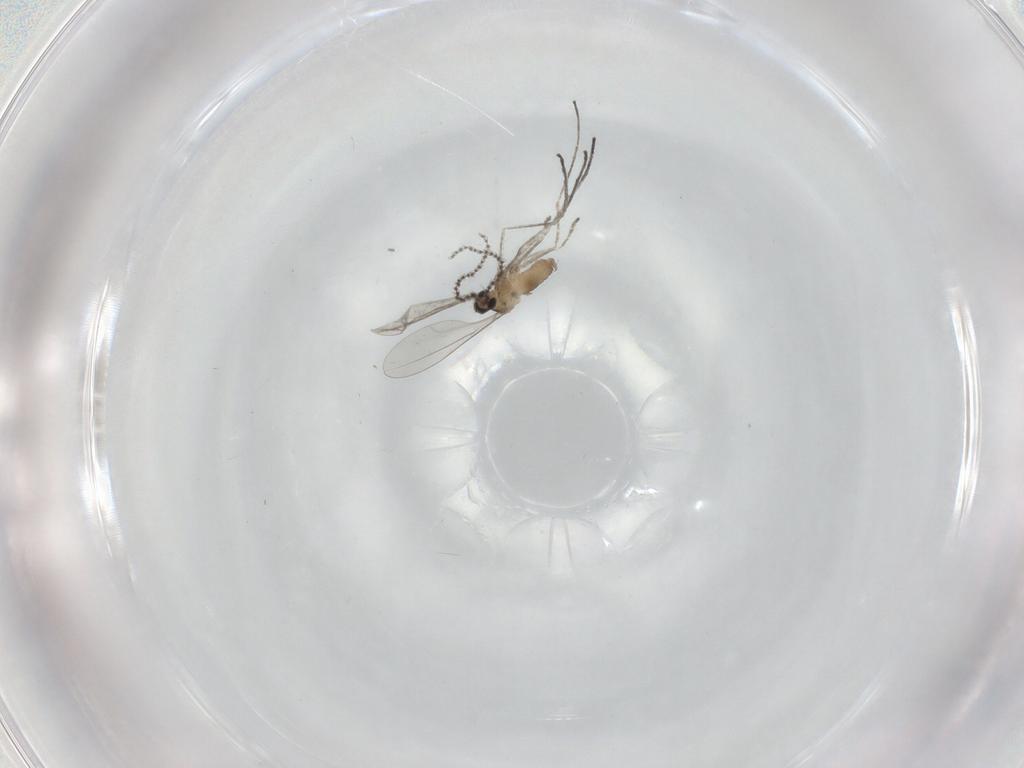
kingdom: Animalia
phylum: Arthropoda
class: Insecta
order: Diptera
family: Cecidomyiidae
